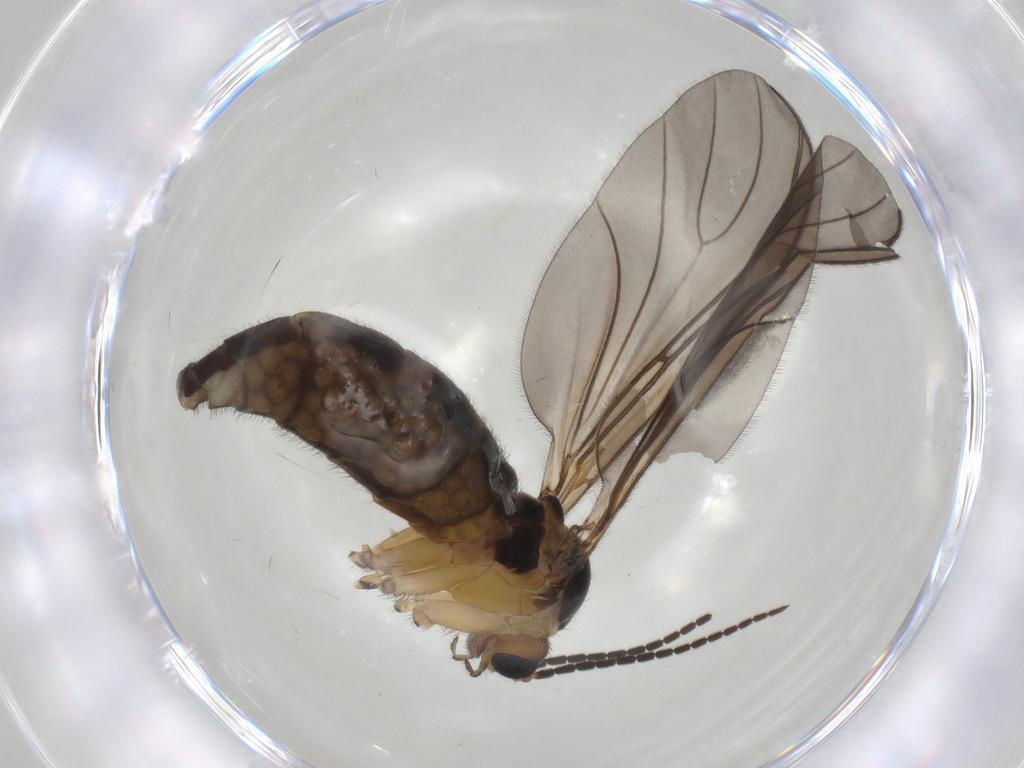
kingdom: Animalia
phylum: Arthropoda
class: Insecta
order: Diptera
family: Sciaridae
